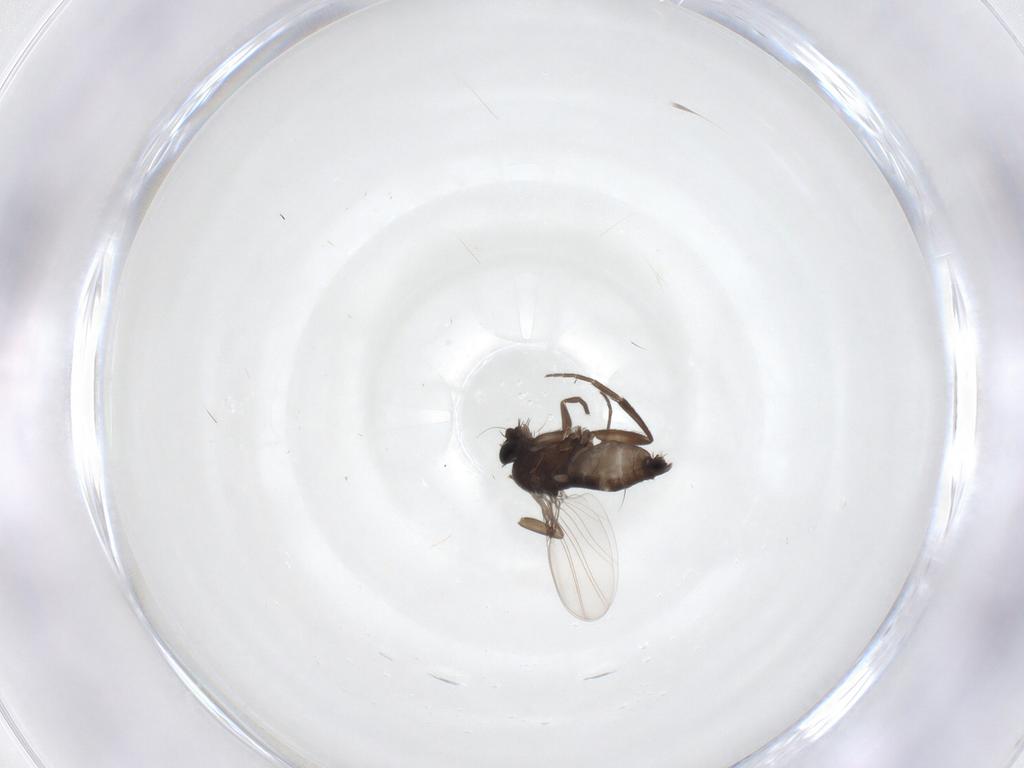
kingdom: Animalia
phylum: Arthropoda
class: Insecta
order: Diptera
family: Phoridae
